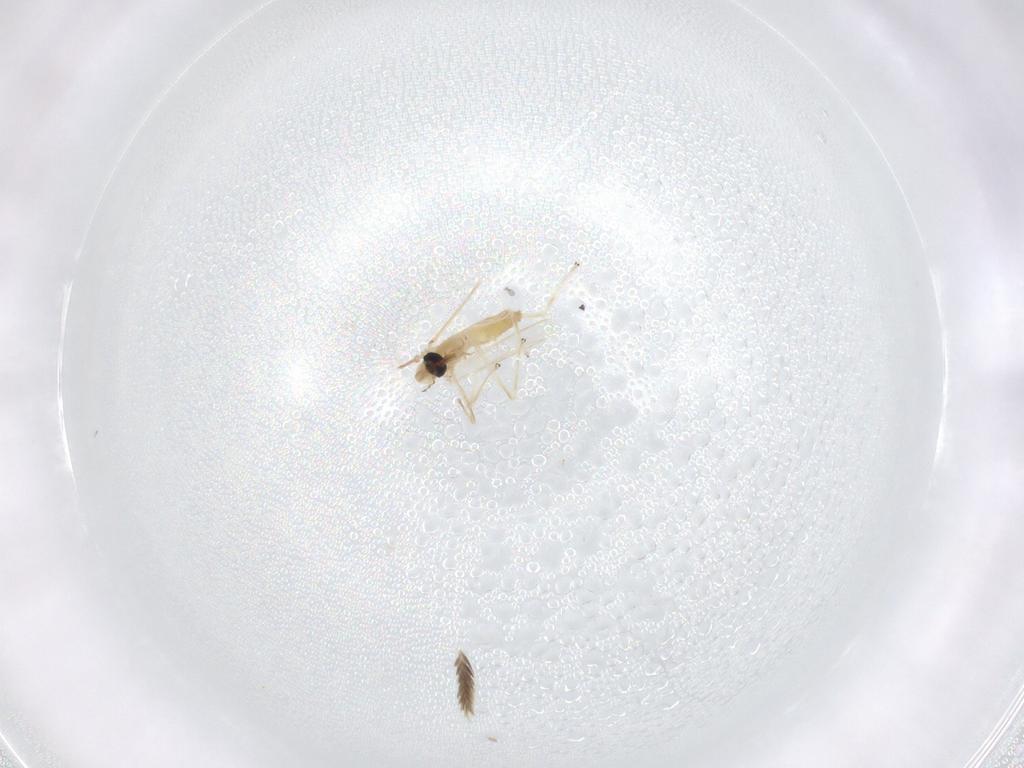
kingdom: Animalia
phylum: Arthropoda
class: Insecta
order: Diptera
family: Chironomidae
